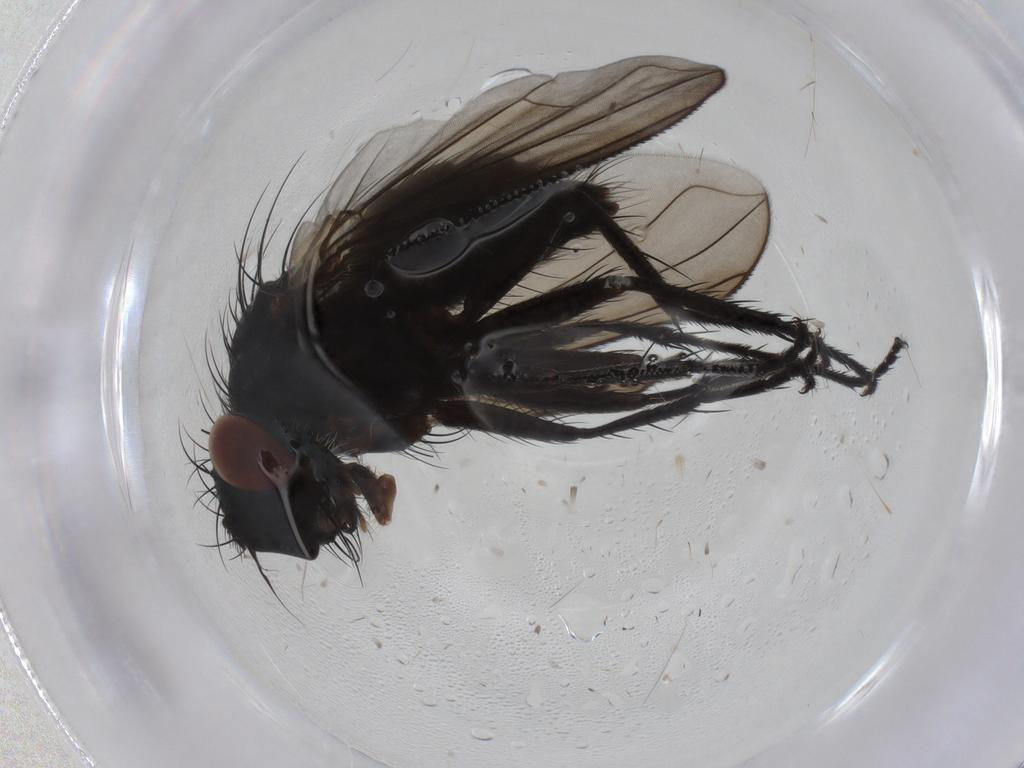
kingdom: Animalia
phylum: Arthropoda
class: Insecta
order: Diptera
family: Tachinidae
